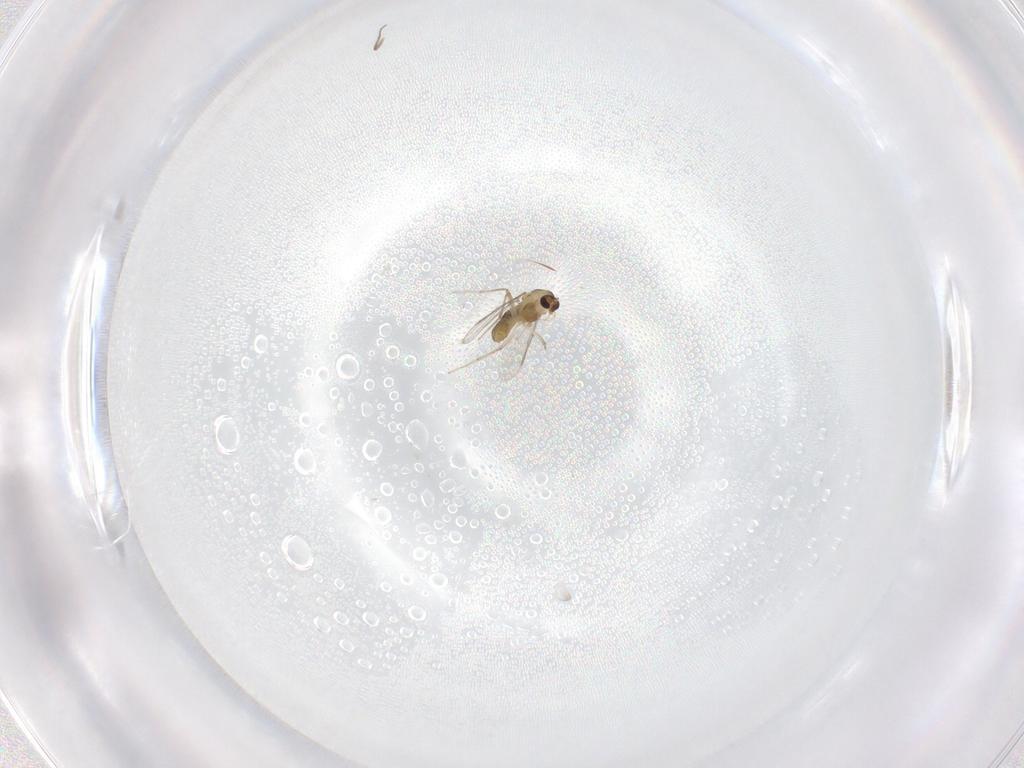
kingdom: Animalia
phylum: Arthropoda
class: Insecta
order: Diptera
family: Chironomidae
